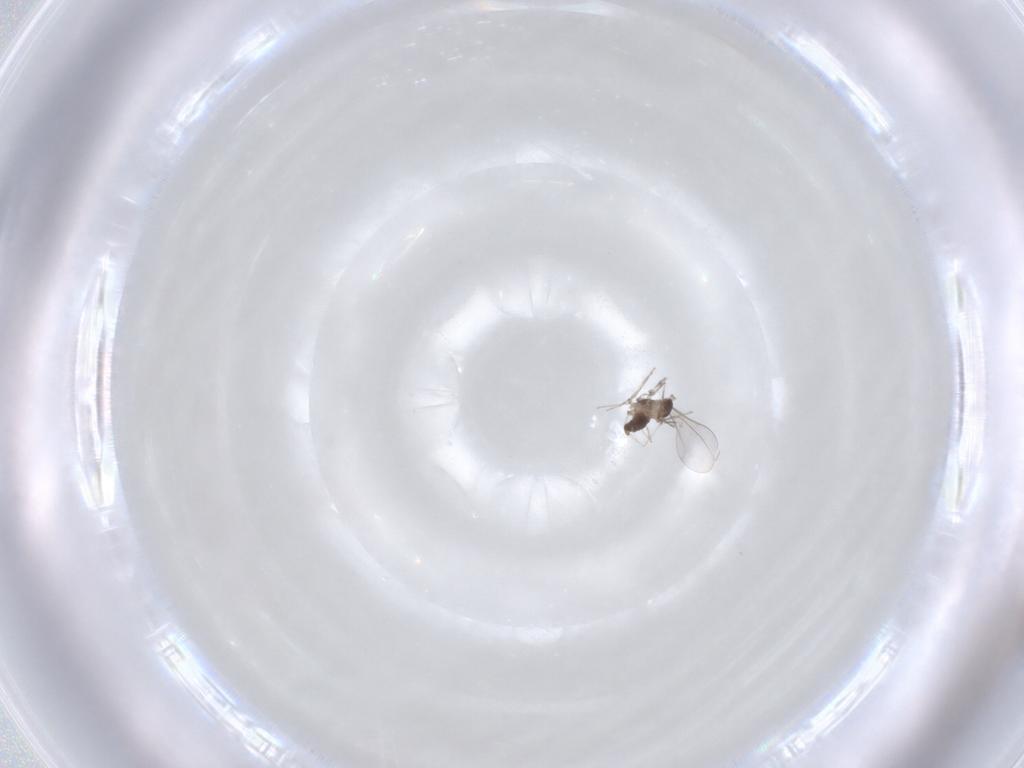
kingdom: Animalia
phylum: Arthropoda
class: Insecta
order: Diptera
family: Cecidomyiidae
